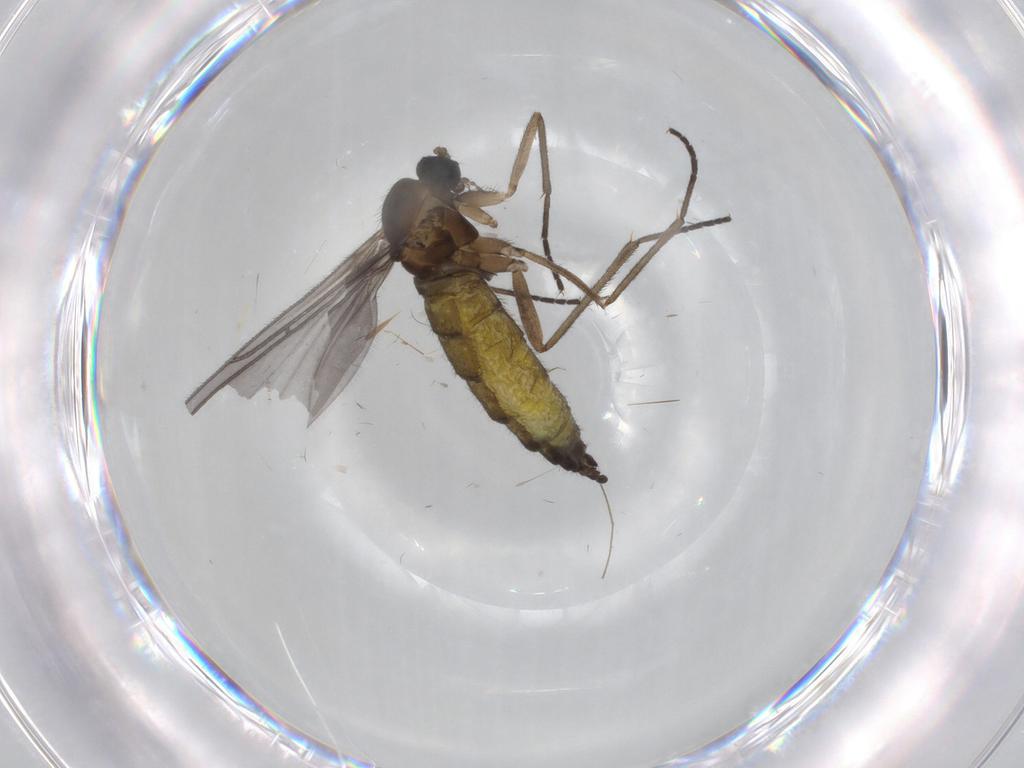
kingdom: Animalia
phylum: Arthropoda
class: Insecta
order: Diptera
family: Sciaridae
